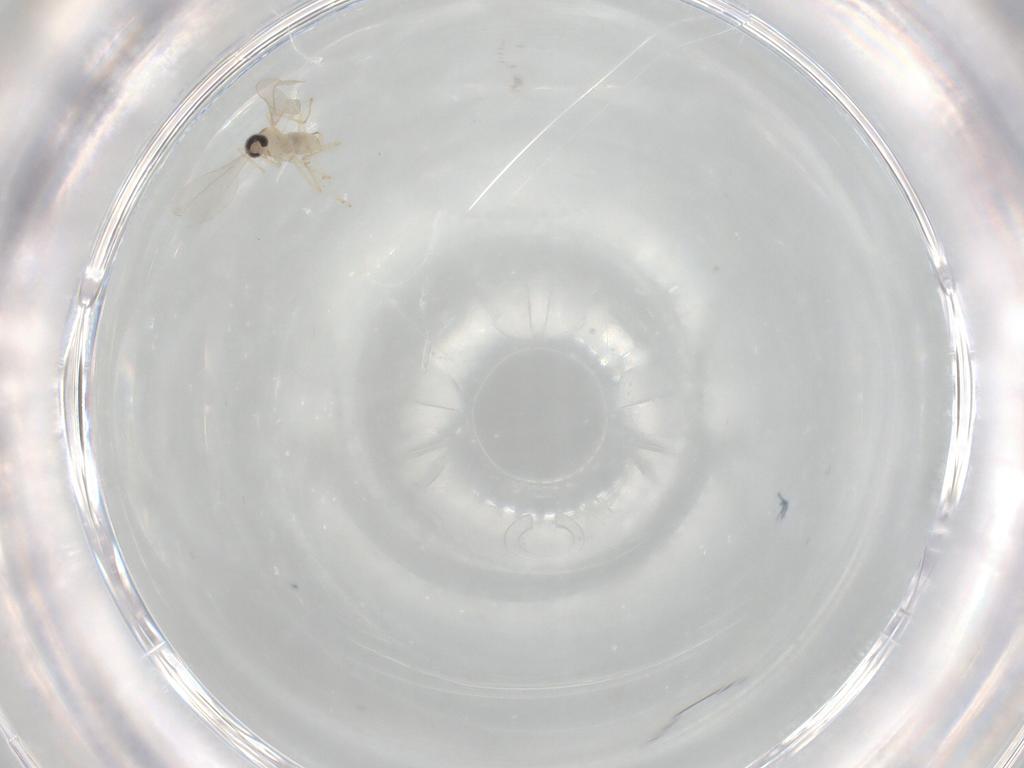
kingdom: Animalia
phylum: Arthropoda
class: Insecta
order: Diptera
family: Cecidomyiidae
